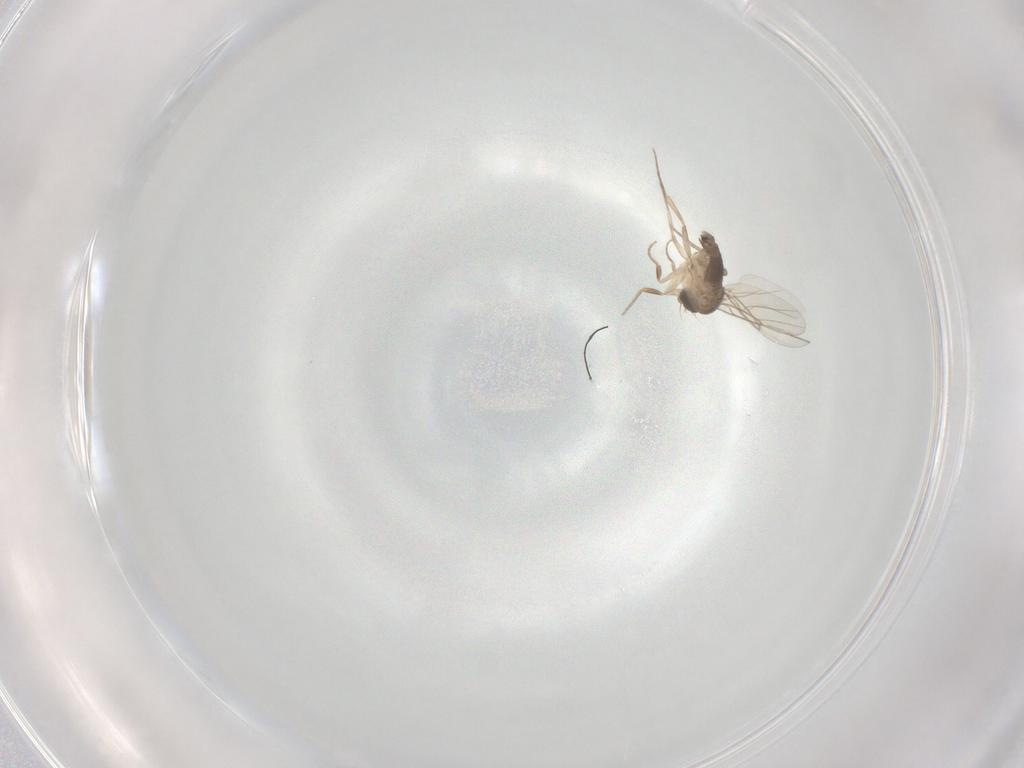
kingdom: Animalia
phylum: Arthropoda
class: Insecta
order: Diptera
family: Phoridae
